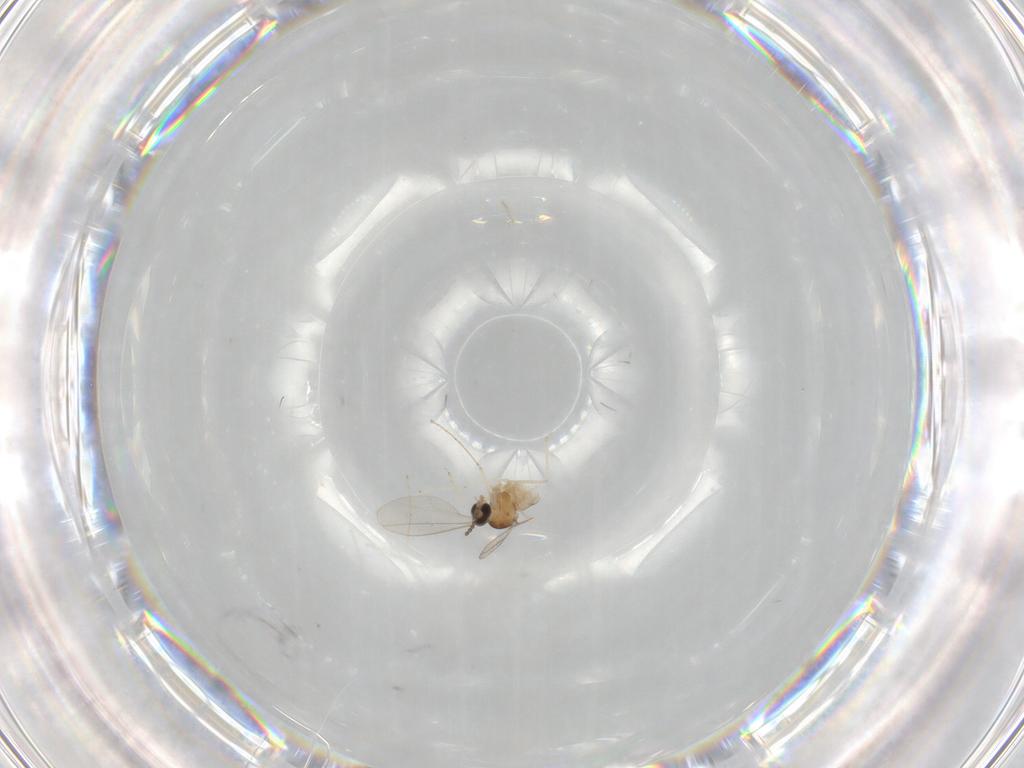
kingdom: Animalia
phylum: Arthropoda
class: Insecta
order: Diptera
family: Cecidomyiidae
